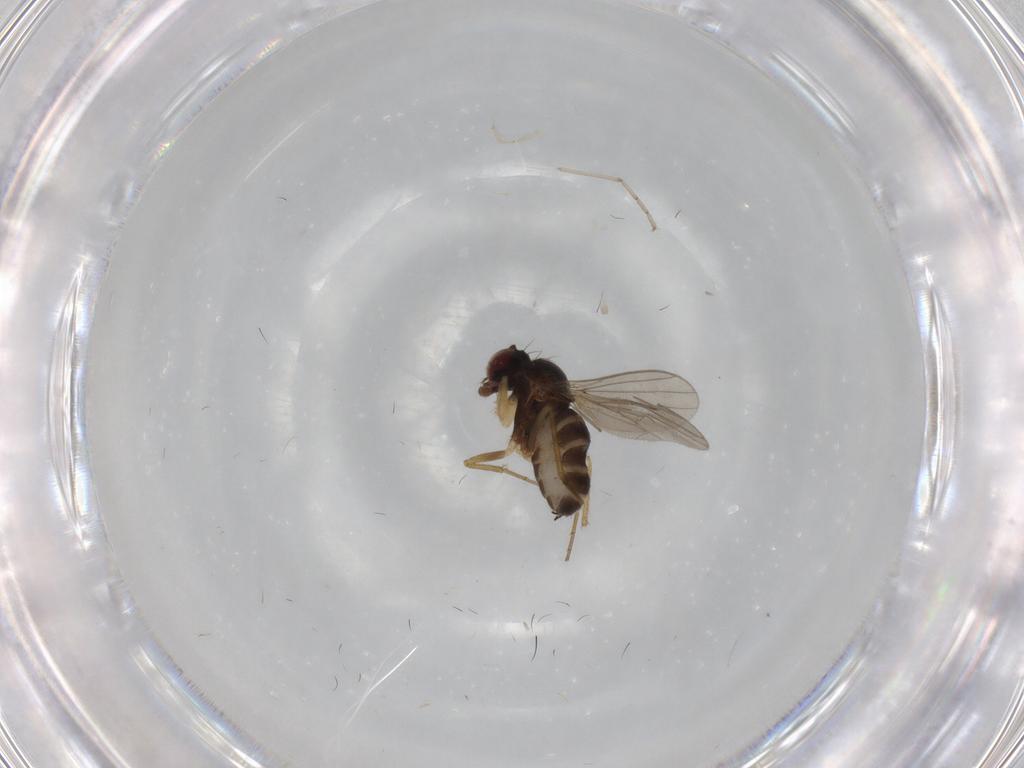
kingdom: Animalia
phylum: Arthropoda
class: Insecta
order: Diptera
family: Dolichopodidae
